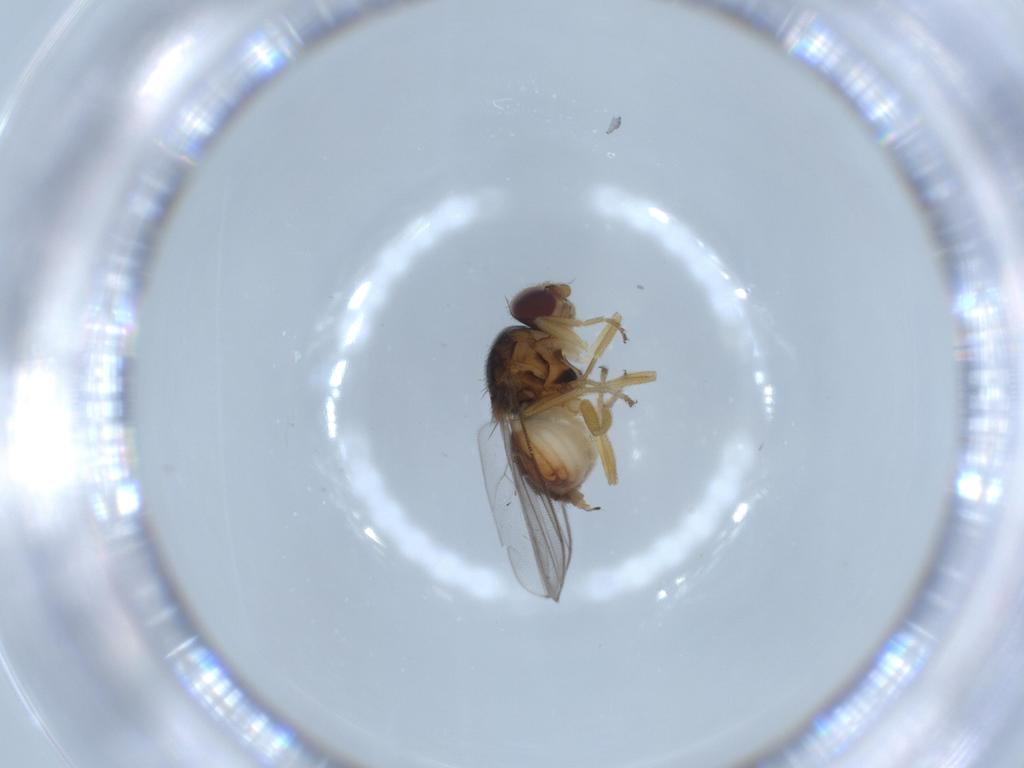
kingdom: Animalia
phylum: Arthropoda
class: Insecta
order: Diptera
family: Chloropidae
